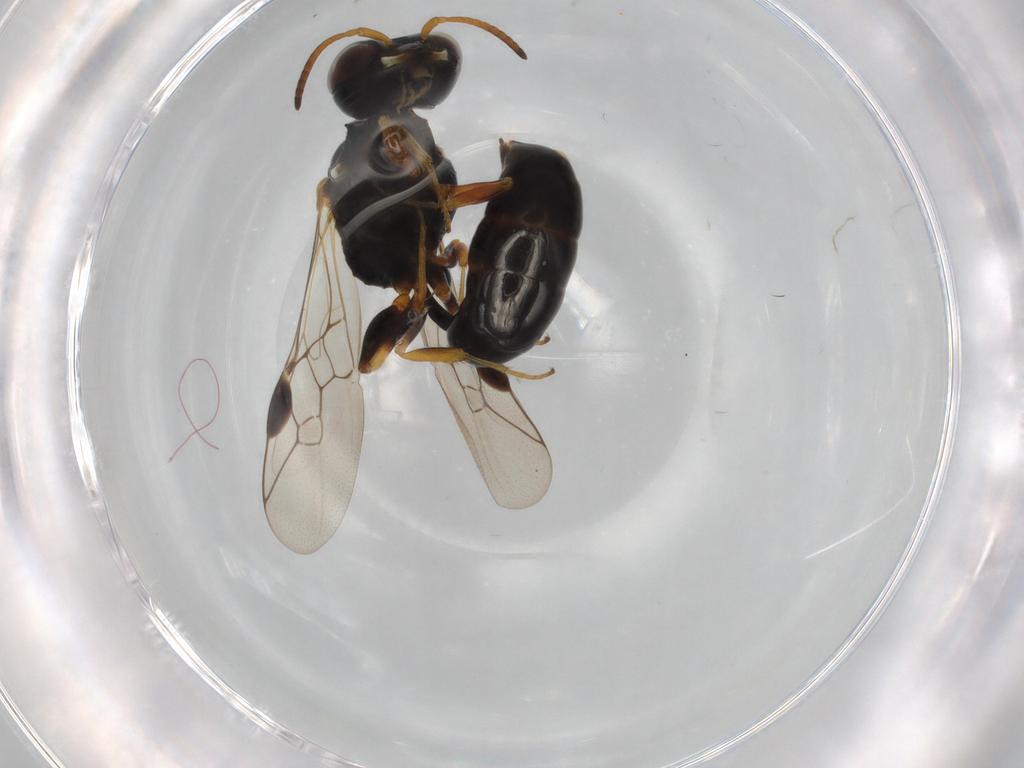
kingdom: Animalia
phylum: Arthropoda
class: Insecta
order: Hymenoptera
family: Pemphredonidae
